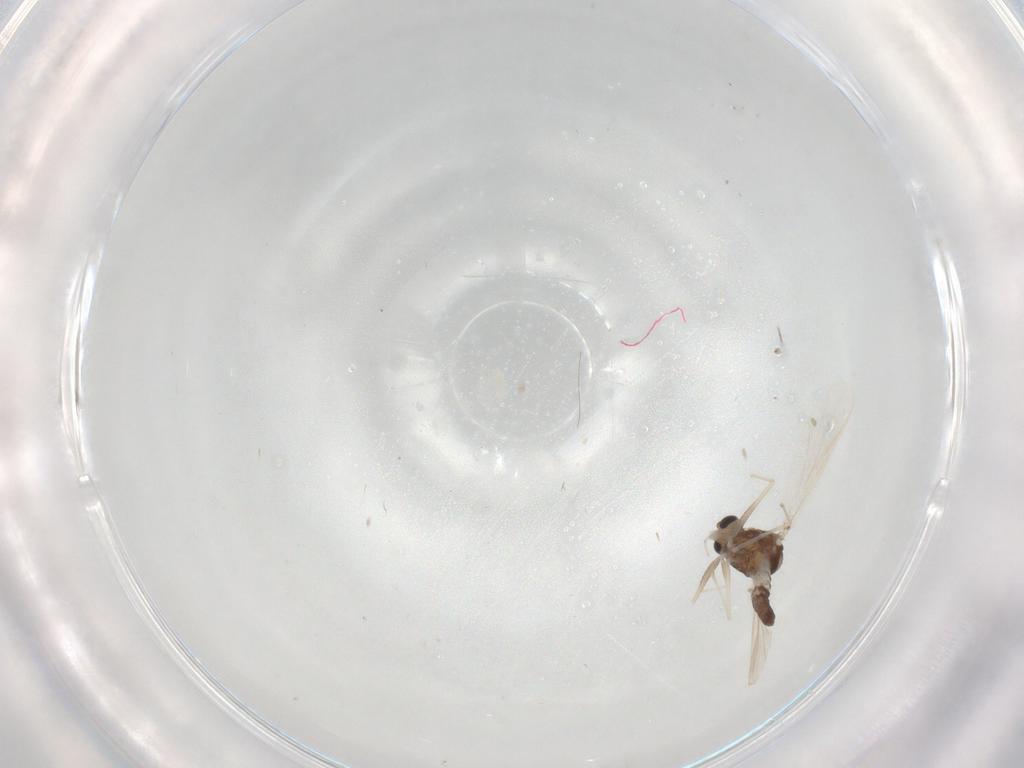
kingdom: Animalia
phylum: Arthropoda
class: Insecta
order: Diptera
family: Chironomidae
